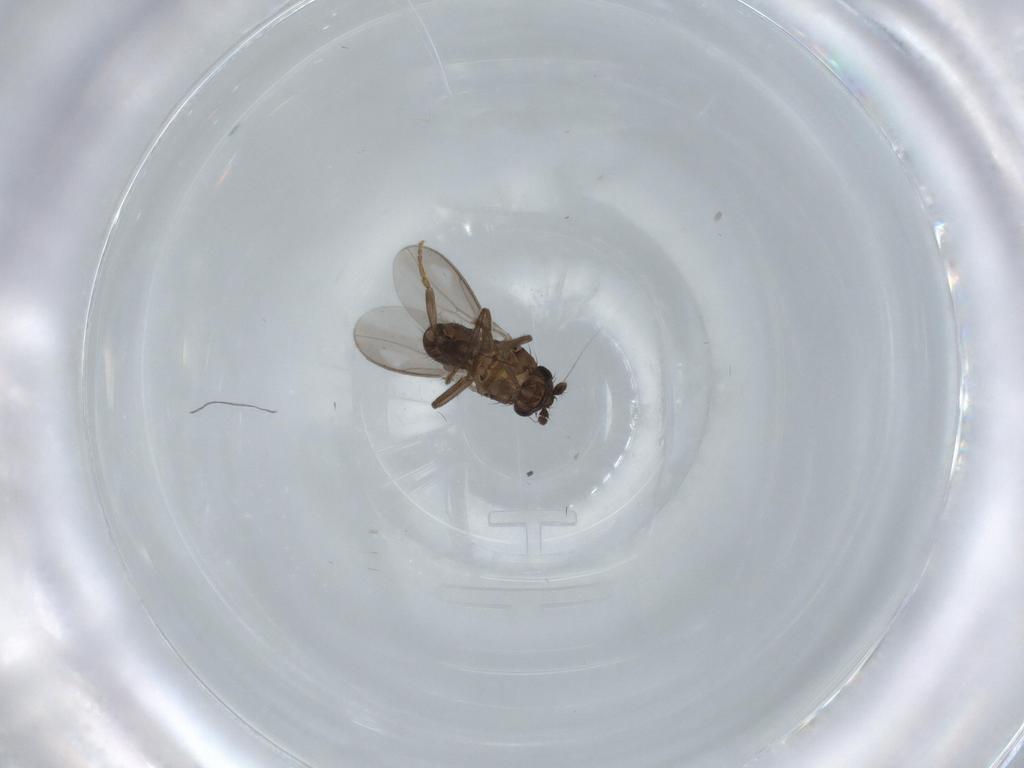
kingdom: Animalia
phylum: Arthropoda
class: Insecta
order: Diptera
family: Sphaeroceridae
